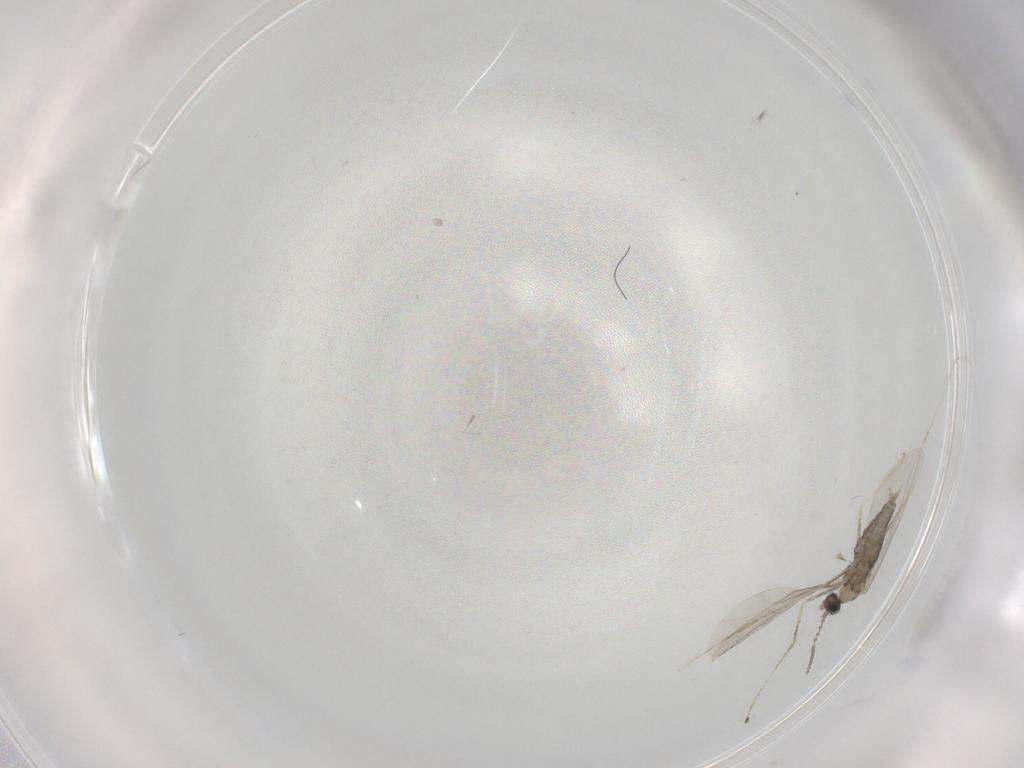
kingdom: Animalia
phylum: Arthropoda
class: Insecta
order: Diptera
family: Cecidomyiidae
